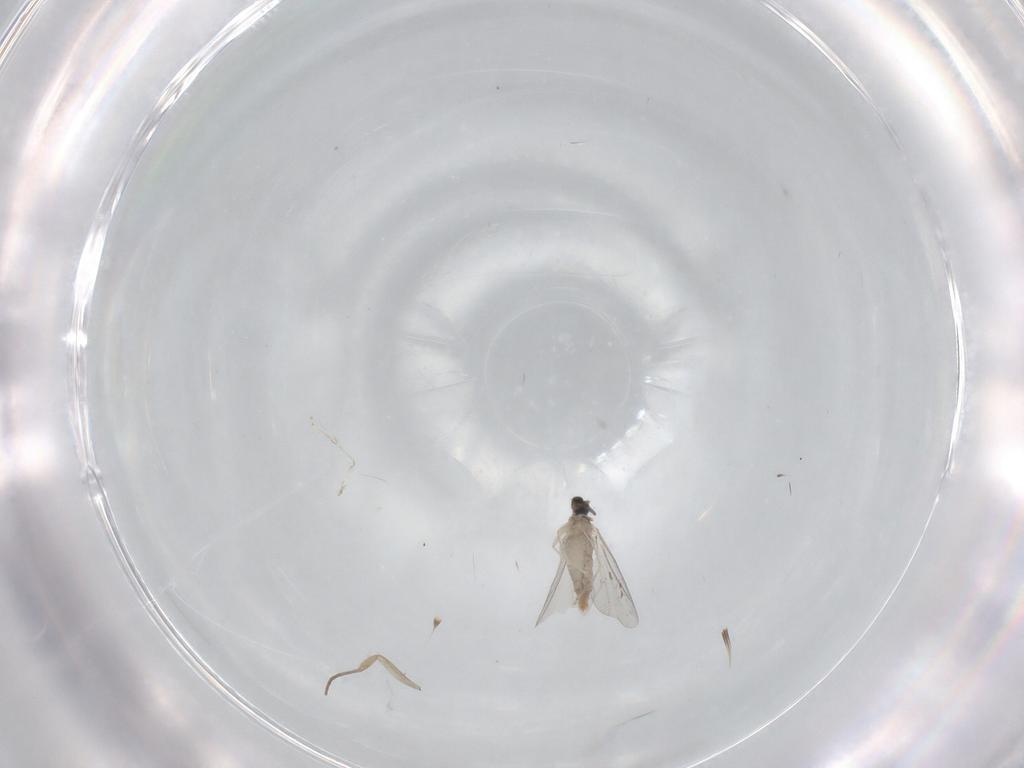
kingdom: Animalia
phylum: Arthropoda
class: Insecta
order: Diptera
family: Cecidomyiidae
